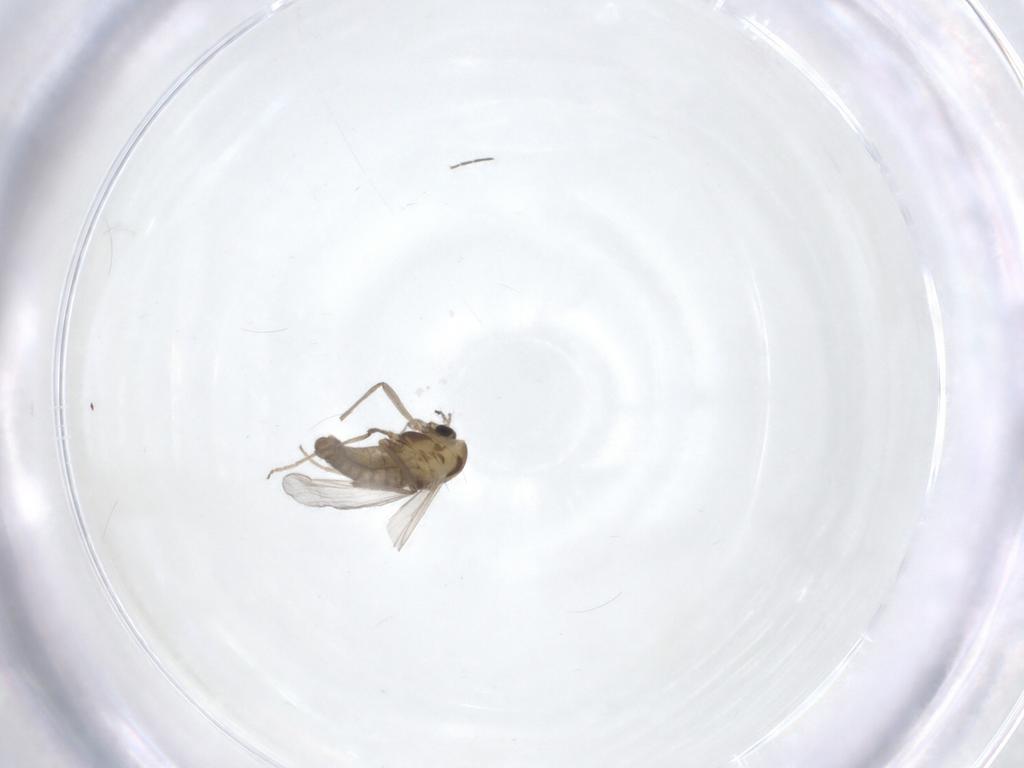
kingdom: Animalia
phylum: Arthropoda
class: Insecta
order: Diptera
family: Chironomidae
